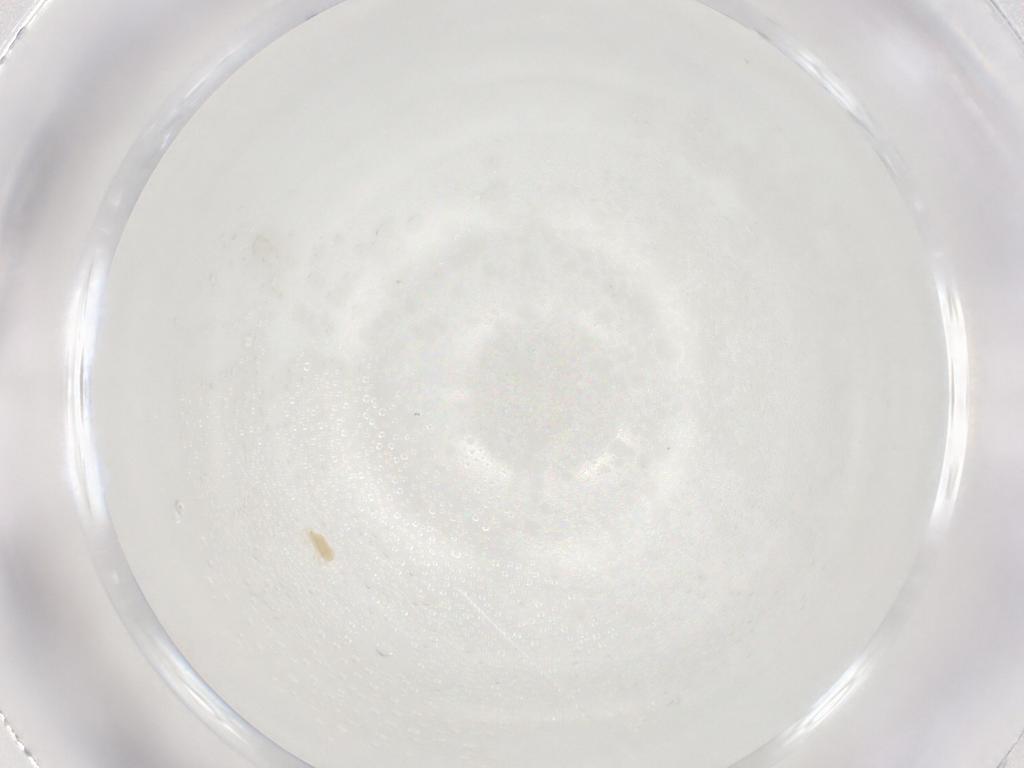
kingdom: Animalia
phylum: Arthropoda
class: Arachnida
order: Trombidiformes
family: Tetranychidae
